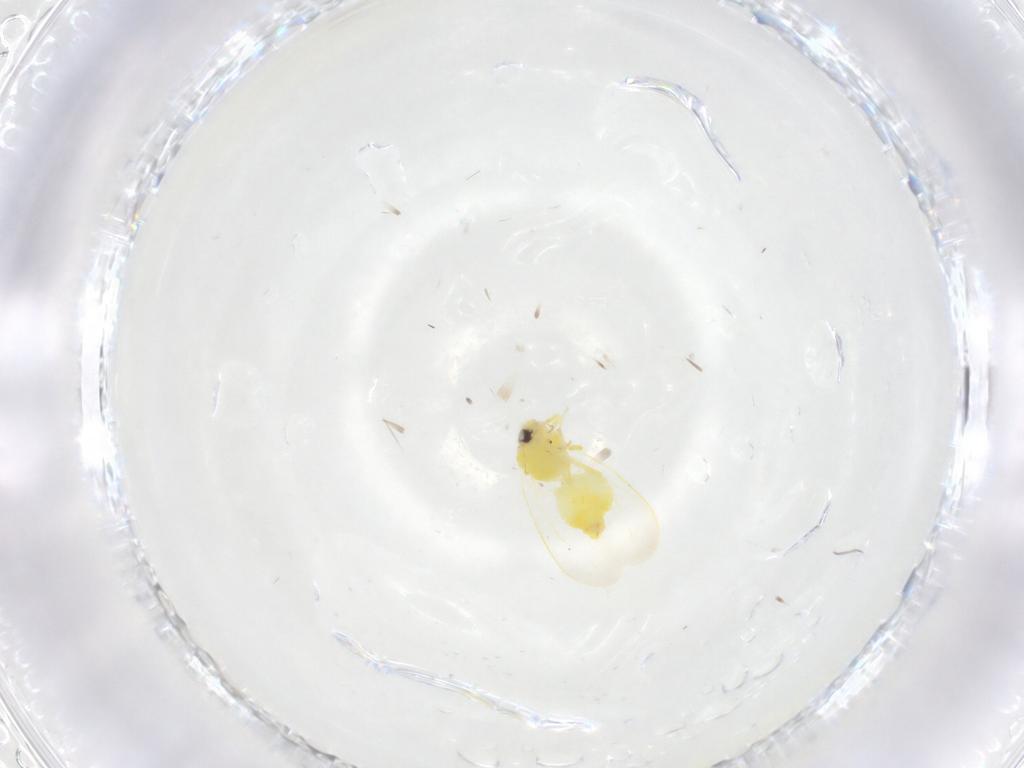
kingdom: Animalia
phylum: Arthropoda
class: Insecta
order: Hemiptera
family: Aleyrodidae
